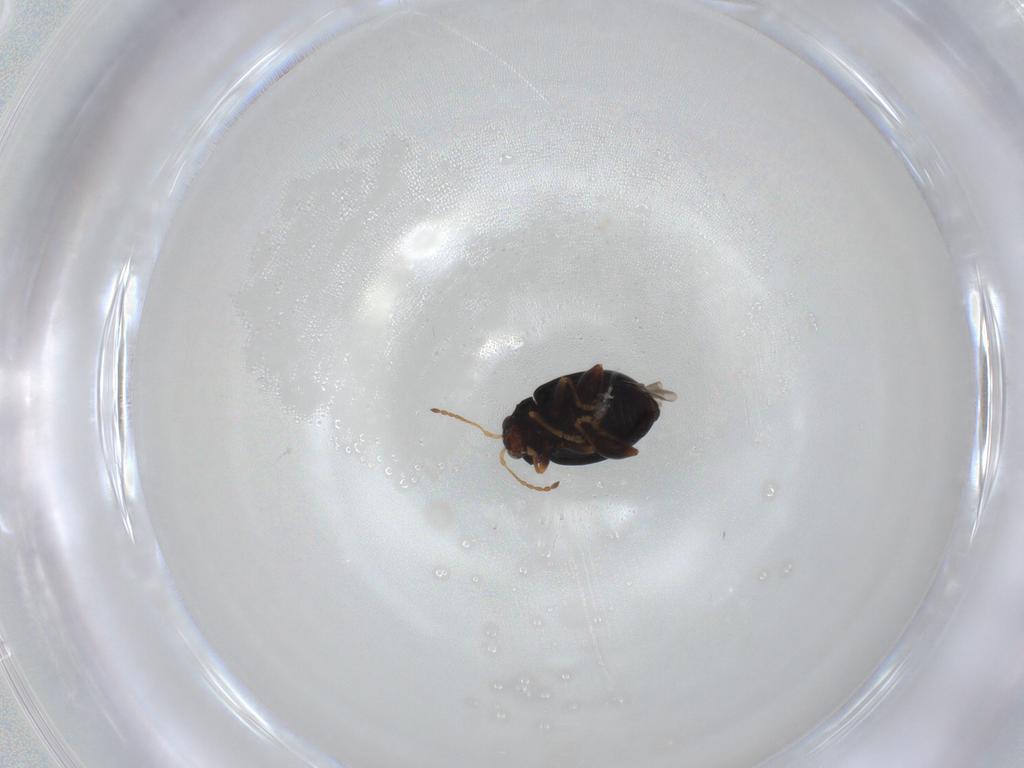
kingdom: Animalia
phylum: Arthropoda
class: Insecta
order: Coleoptera
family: Chrysomelidae
